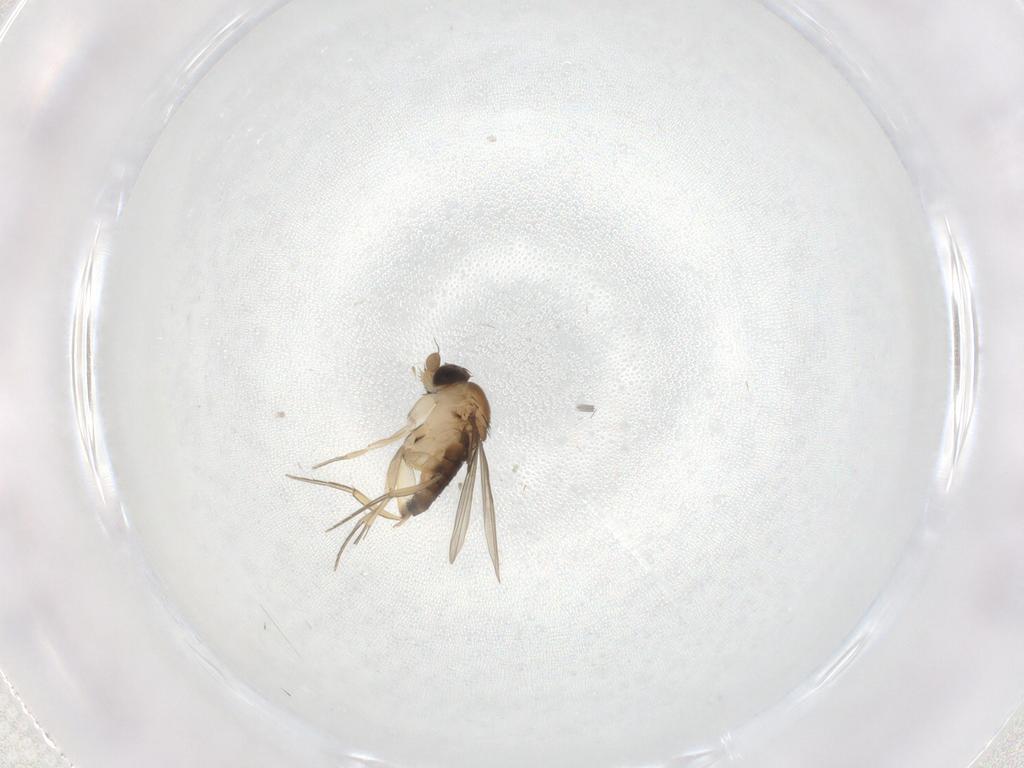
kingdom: Animalia
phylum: Arthropoda
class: Insecta
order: Diptera
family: Phoridae
